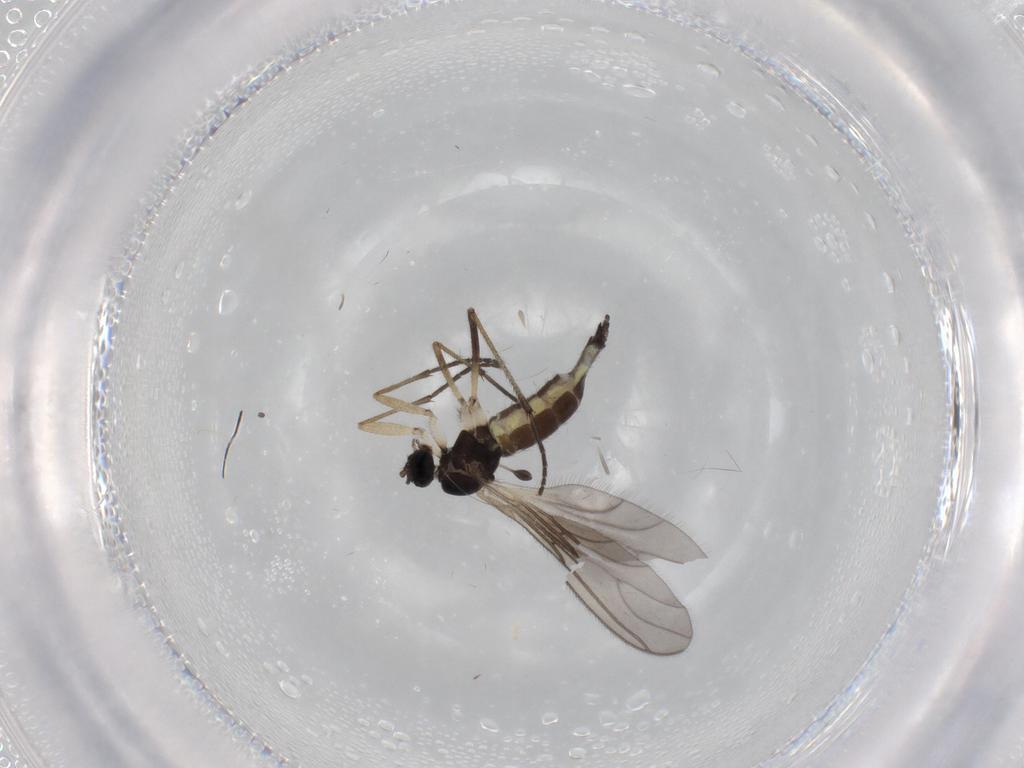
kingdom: Animalia
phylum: Arthropoda
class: Insecta
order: Diptera
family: Sciaridae
